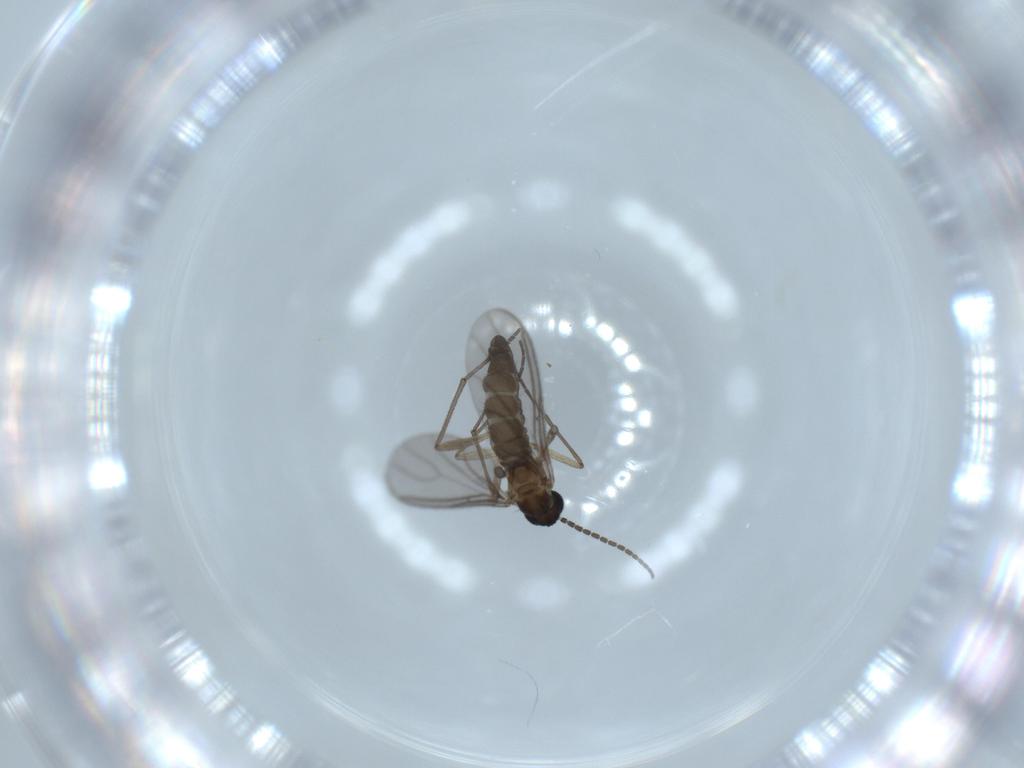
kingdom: Animalia
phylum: Arthropoda
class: Insecta
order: Diptera
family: Sciaridae
